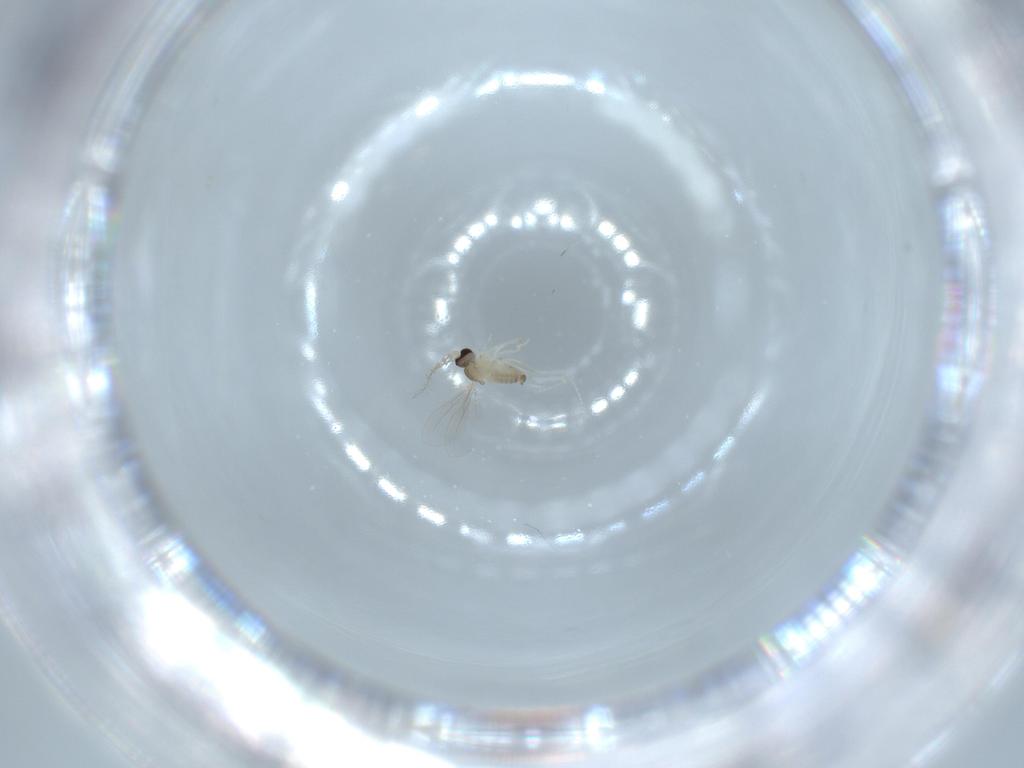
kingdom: Animalia
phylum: Arthropoda
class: Insecta
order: Diptera
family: Cecidomyiidae
